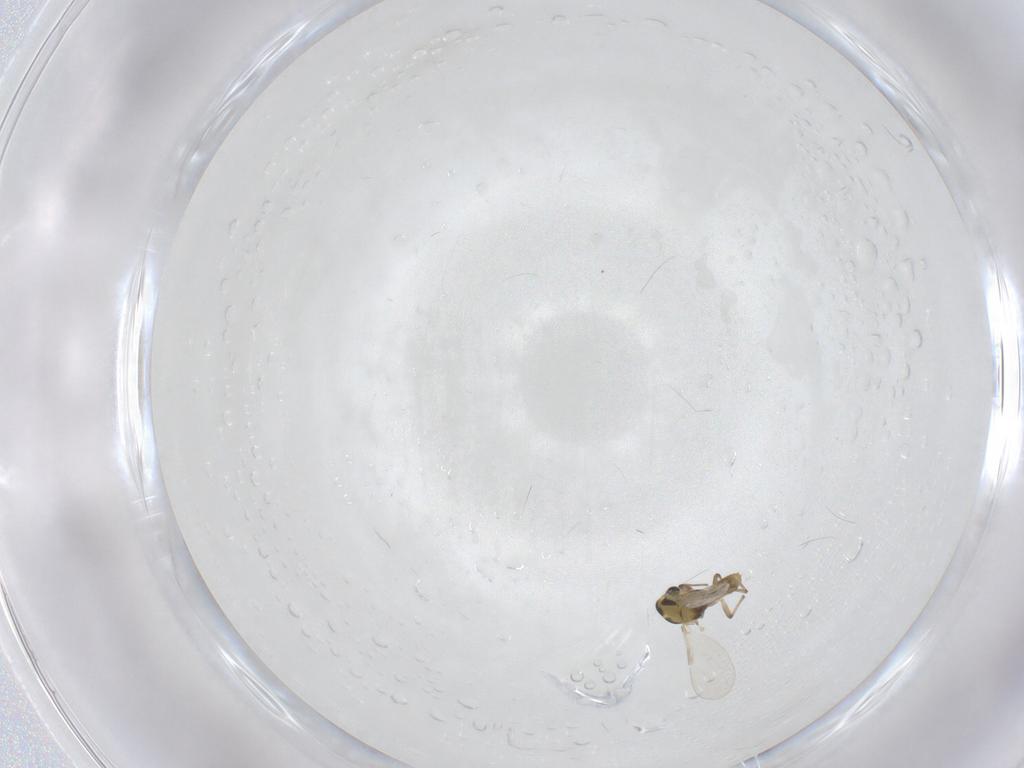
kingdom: Animalia
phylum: Arthropoda
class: Insecta
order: Diptera
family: Chironomidae
